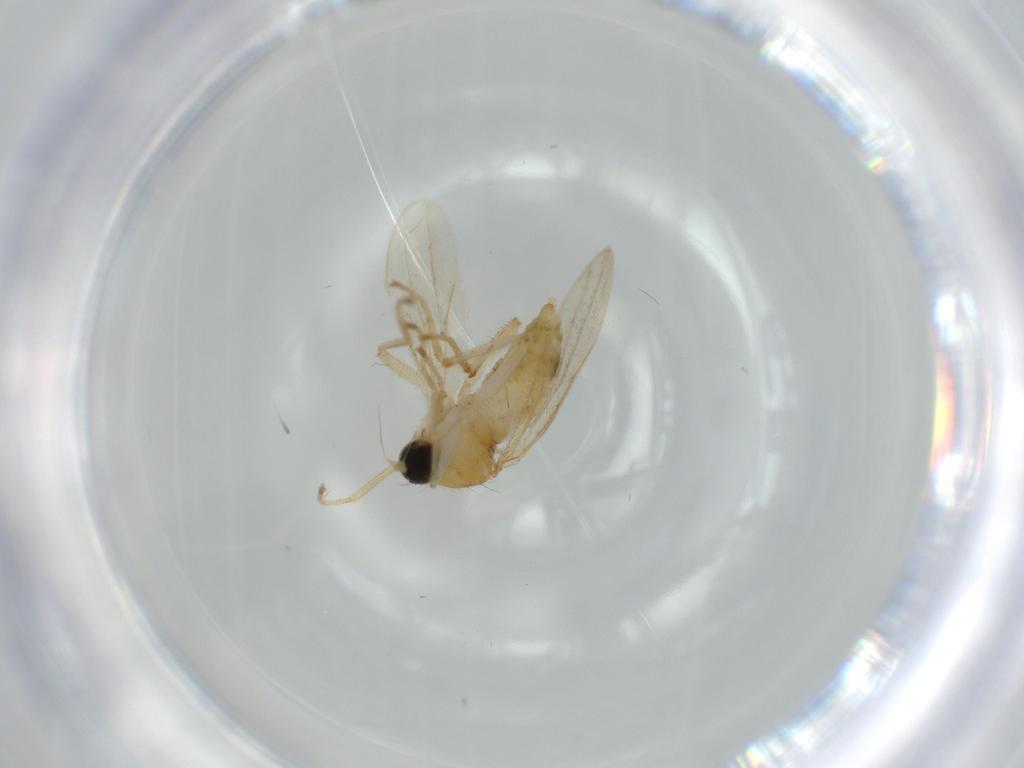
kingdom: Animalia
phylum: Arthropoda
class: Insecta
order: Diptera
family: Hybotidae
